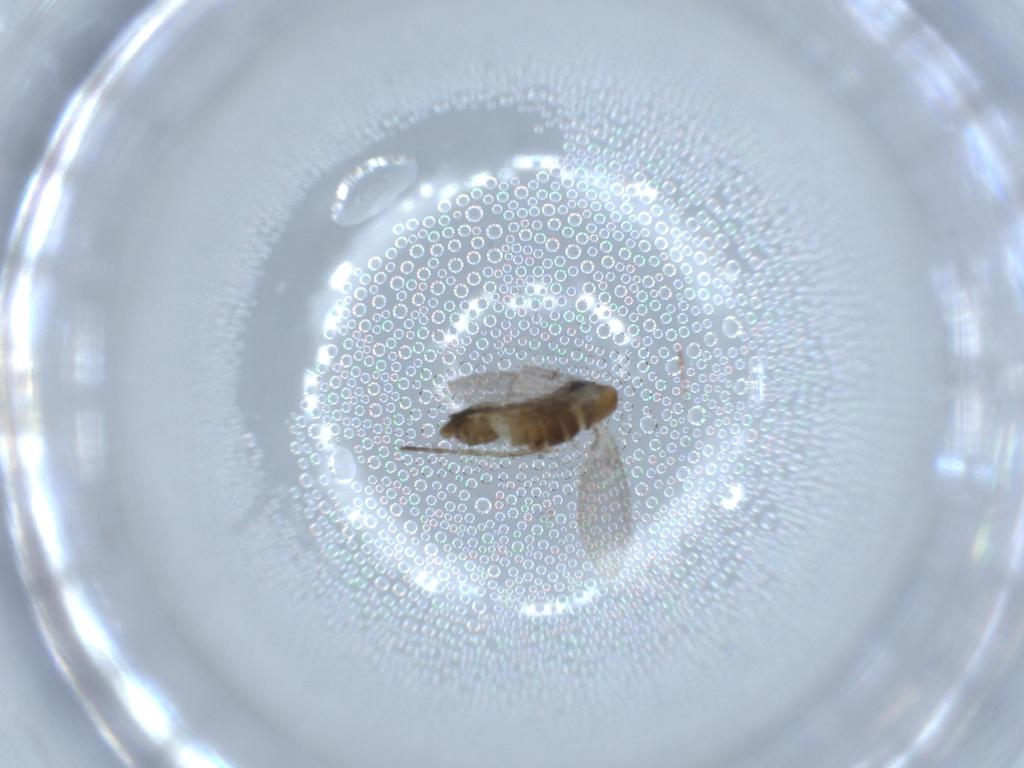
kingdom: Animalia
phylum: Arthropoda
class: Insecta
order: Diptera
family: Psychodidae
